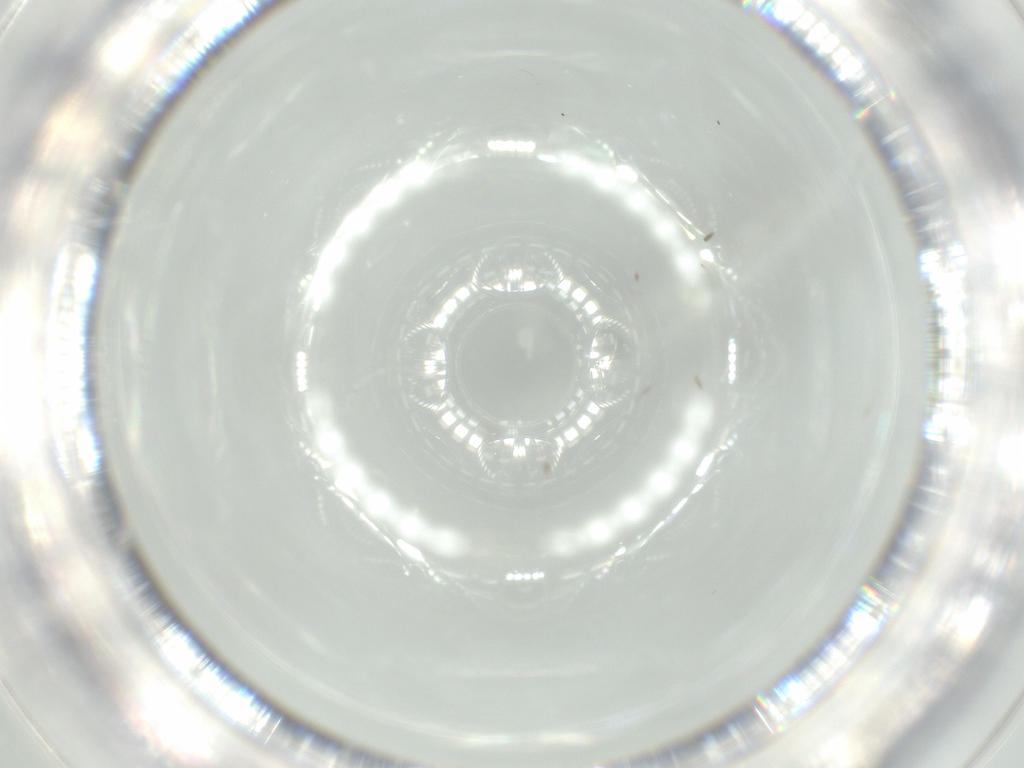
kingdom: Animalia
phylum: Arthropoda
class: Insecta
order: Diptera
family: Chironomidae
